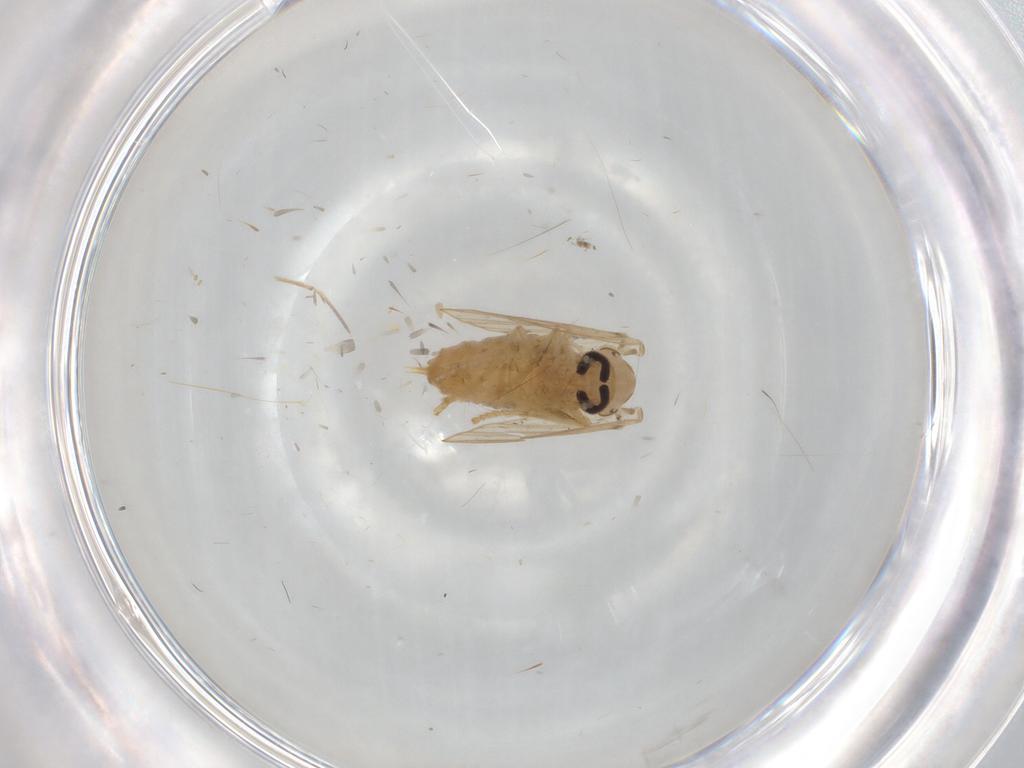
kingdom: Animalia
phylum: Arthropoda
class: Insecta
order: Diptera
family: Psychodidae
